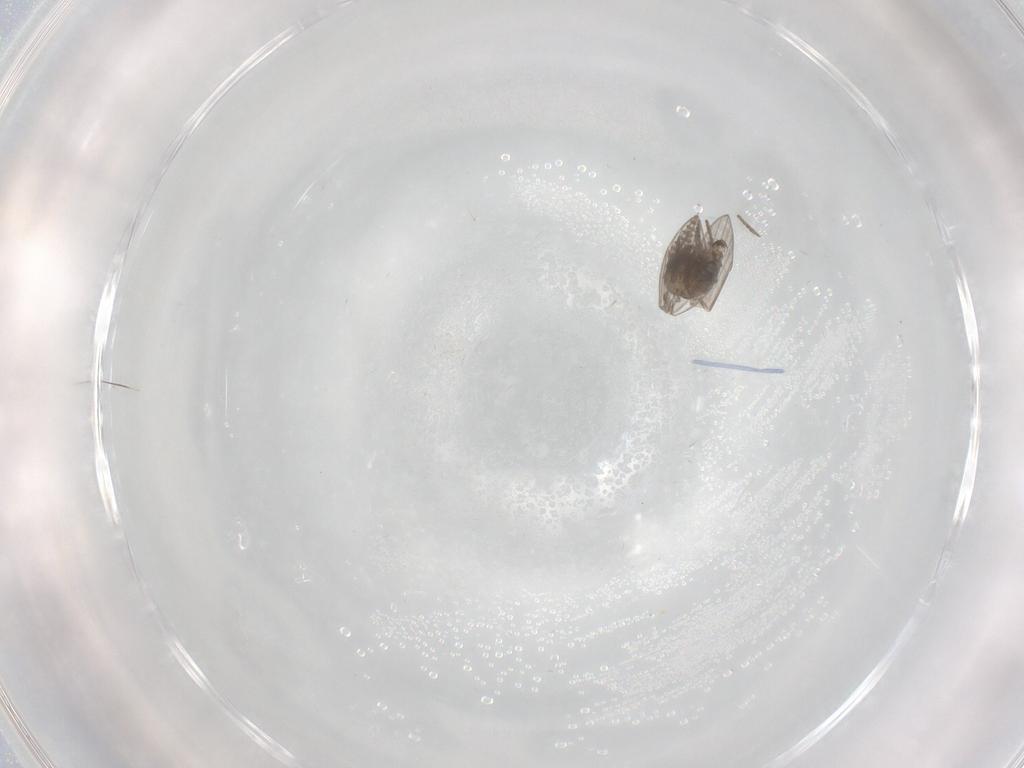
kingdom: Animalia
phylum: Arthropoda
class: Insecta
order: Diptera
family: Psychodidae
